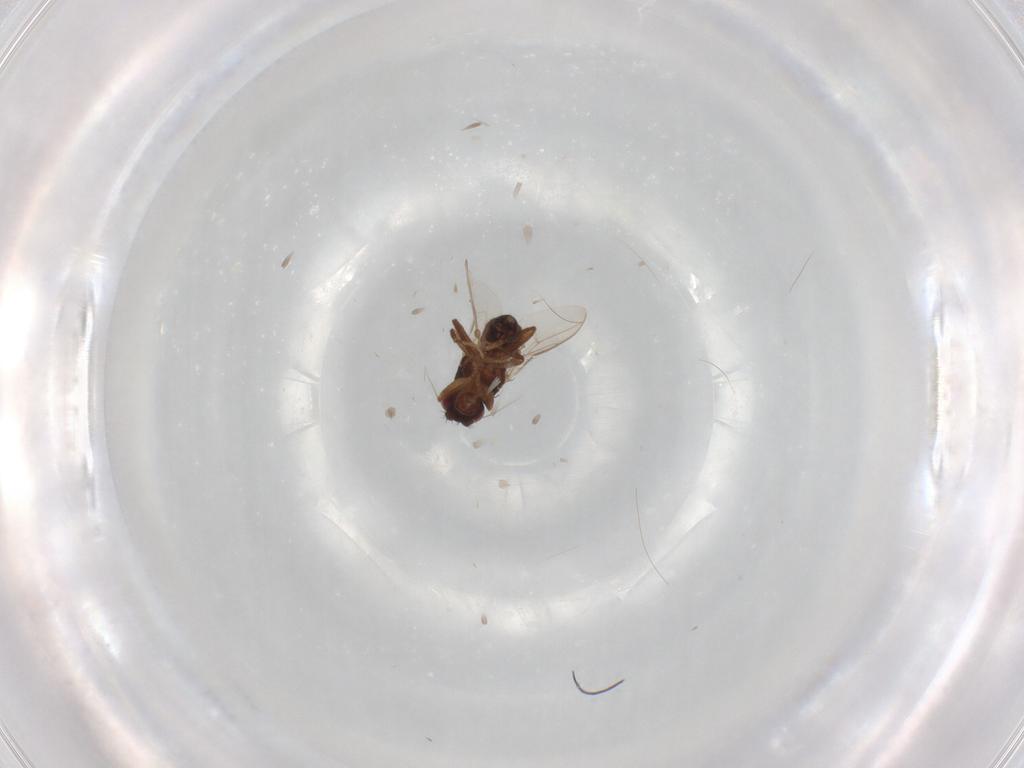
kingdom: Animalia
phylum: Arthropoda
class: Insecta
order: Diptera
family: Sphaeroceridae
